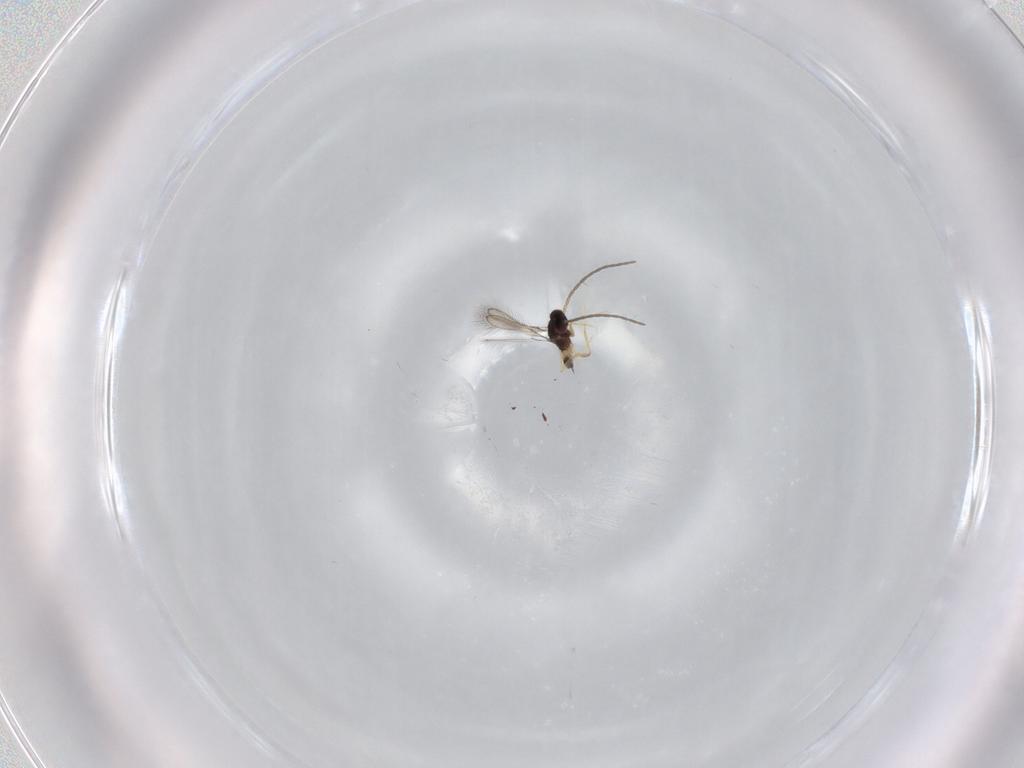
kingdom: Animalia
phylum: Arthropoda
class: Insecta
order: Hymenoptera
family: Mymaridae
